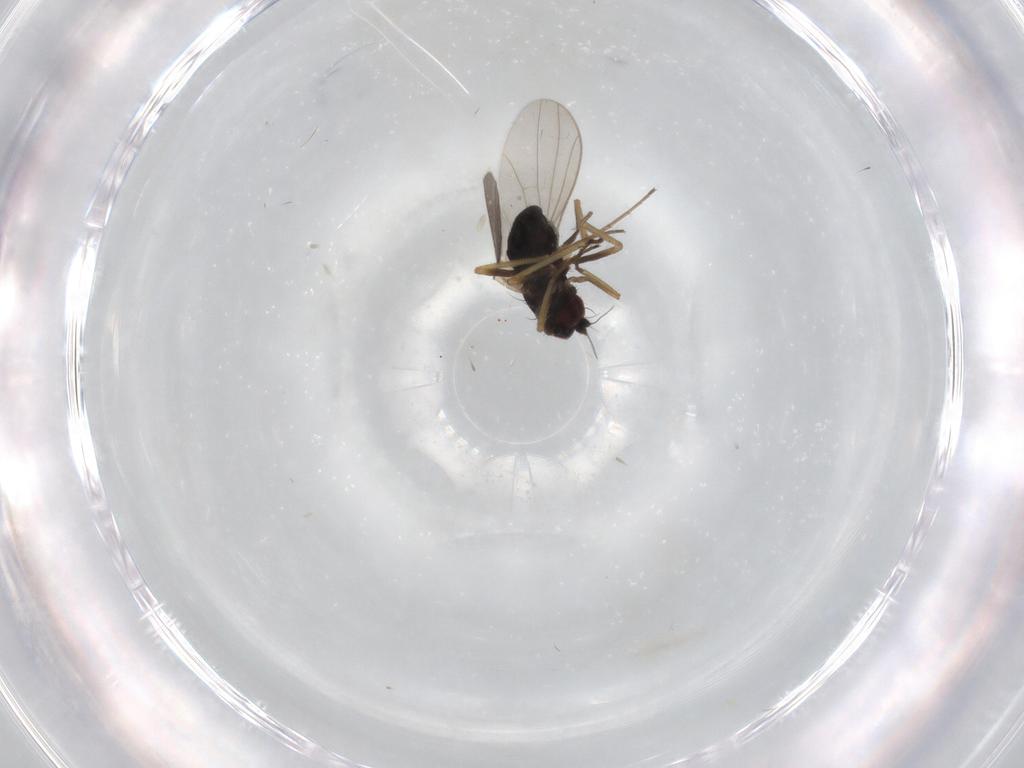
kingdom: Animalia
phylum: Arthropoda
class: Insecta
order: Diptera
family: Dolichopodidae
